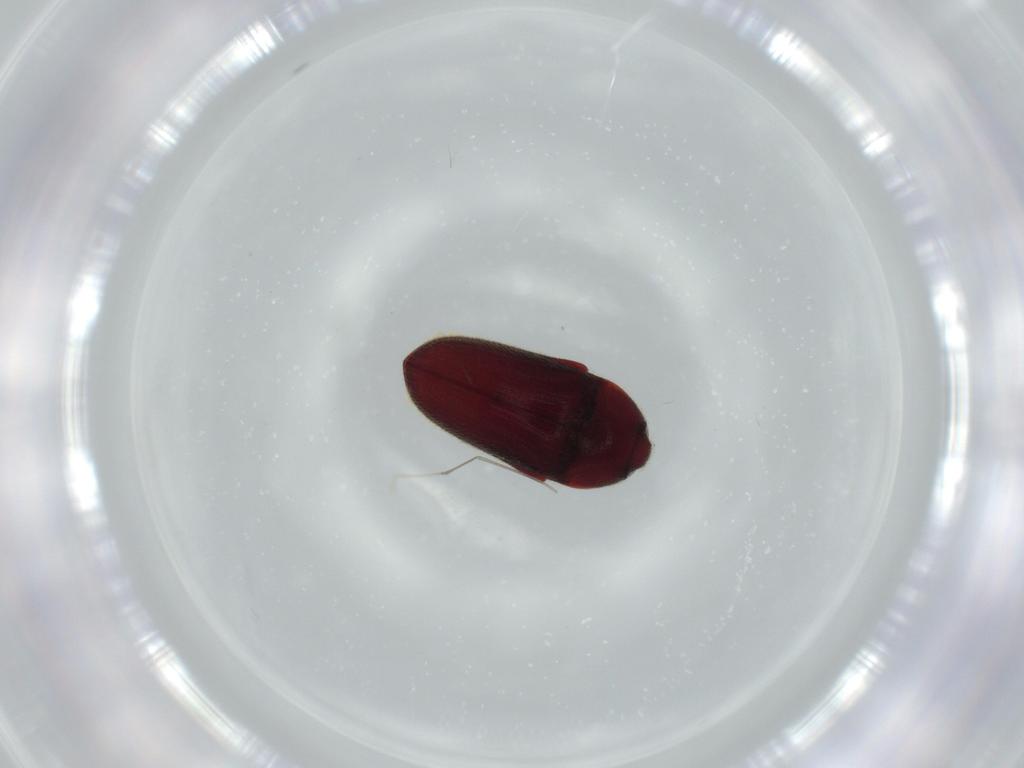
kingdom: Animalia
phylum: Arthropoda
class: Insecta
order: Coleoptera
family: Throscidae
